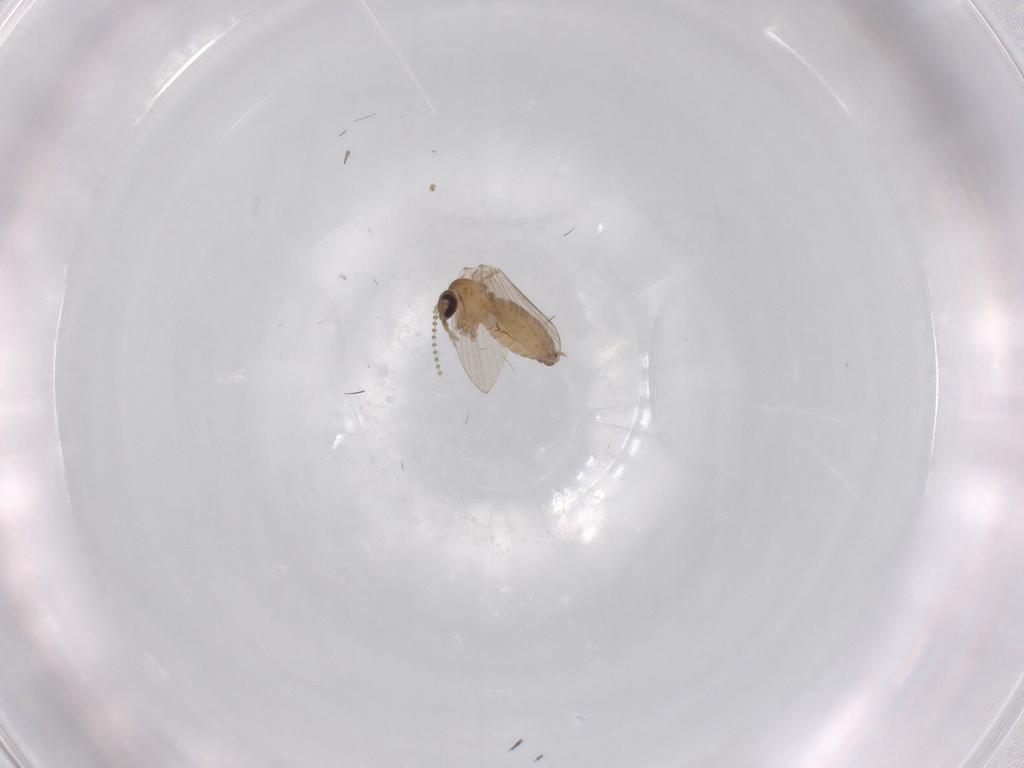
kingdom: Animalia
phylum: Arthropoda
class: Insecta
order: Diptera
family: Psychodidae
